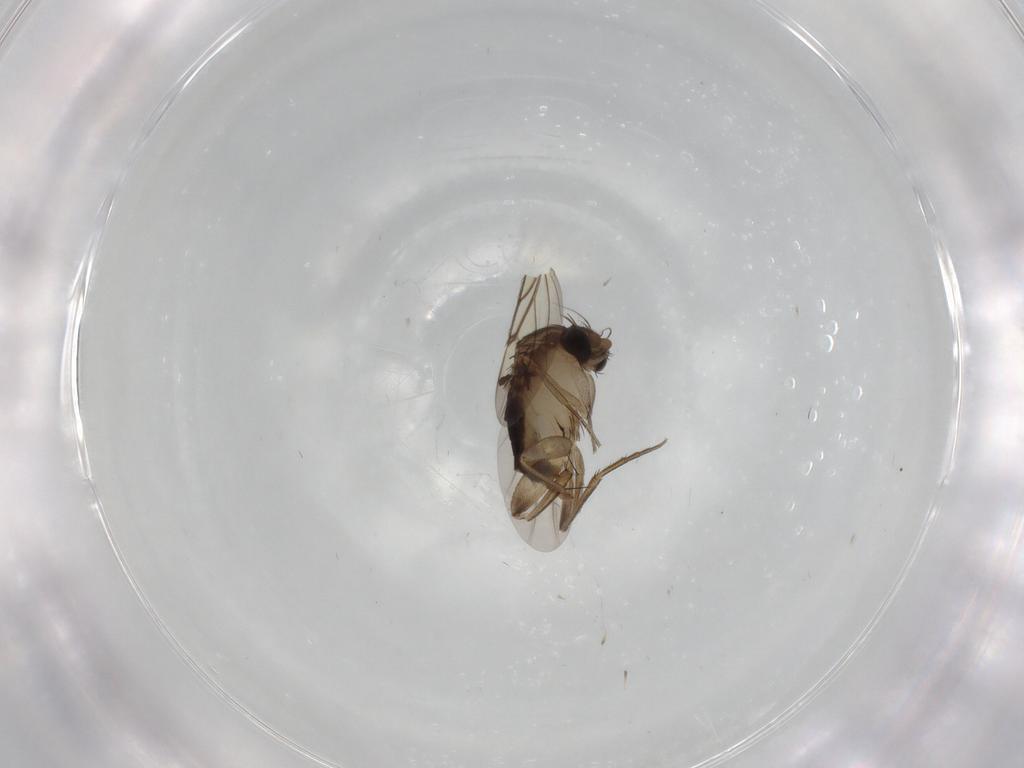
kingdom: Animalia
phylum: Arthropoda
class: Insecta
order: Diptera
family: Phoridae
